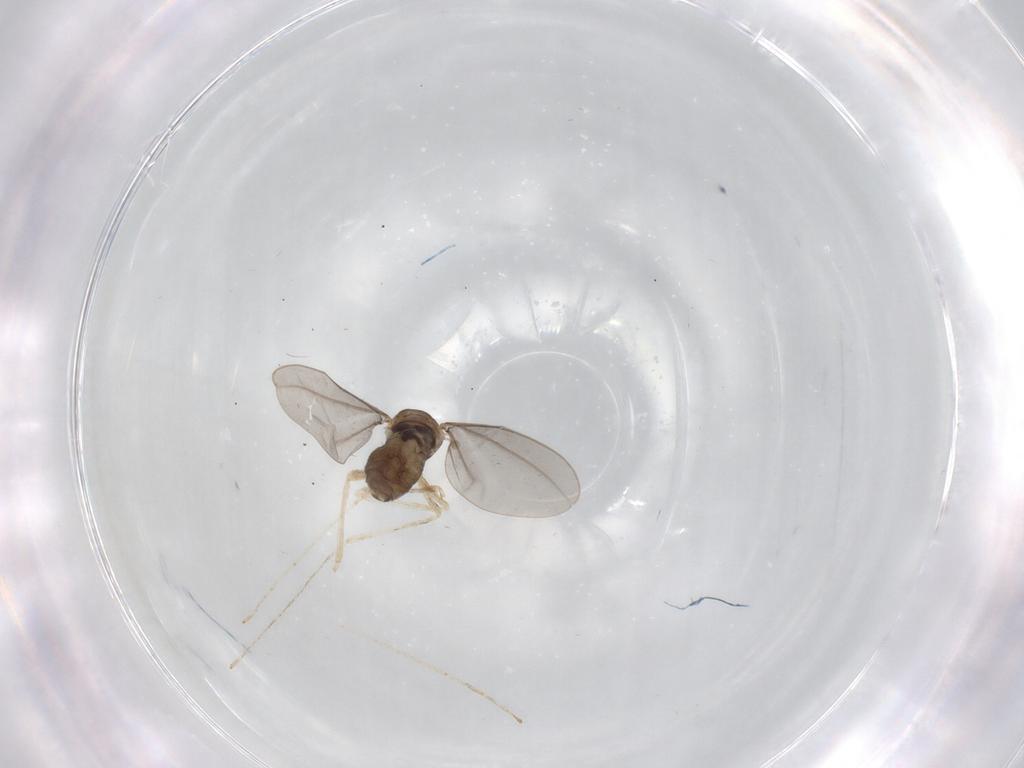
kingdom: Animalia
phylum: Arthropoda
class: Insecta
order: Diptera
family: Cecidomyiidae
